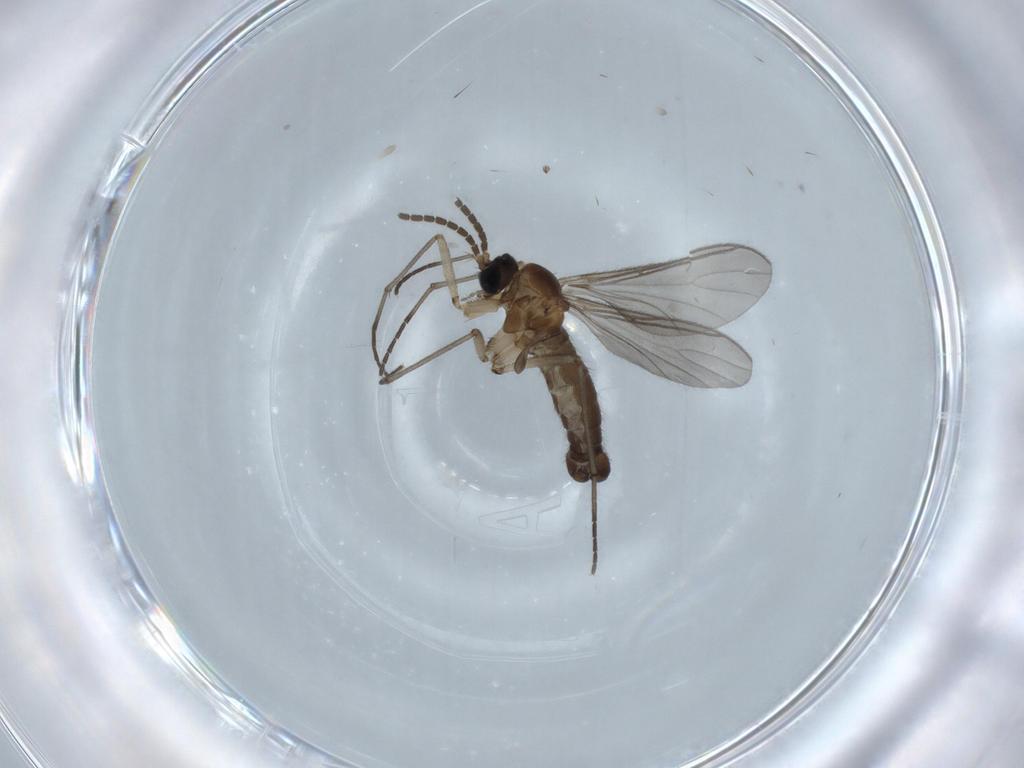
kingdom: Animalia
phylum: Arthropoda
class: Insecta
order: Diptera
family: Sciaridae
